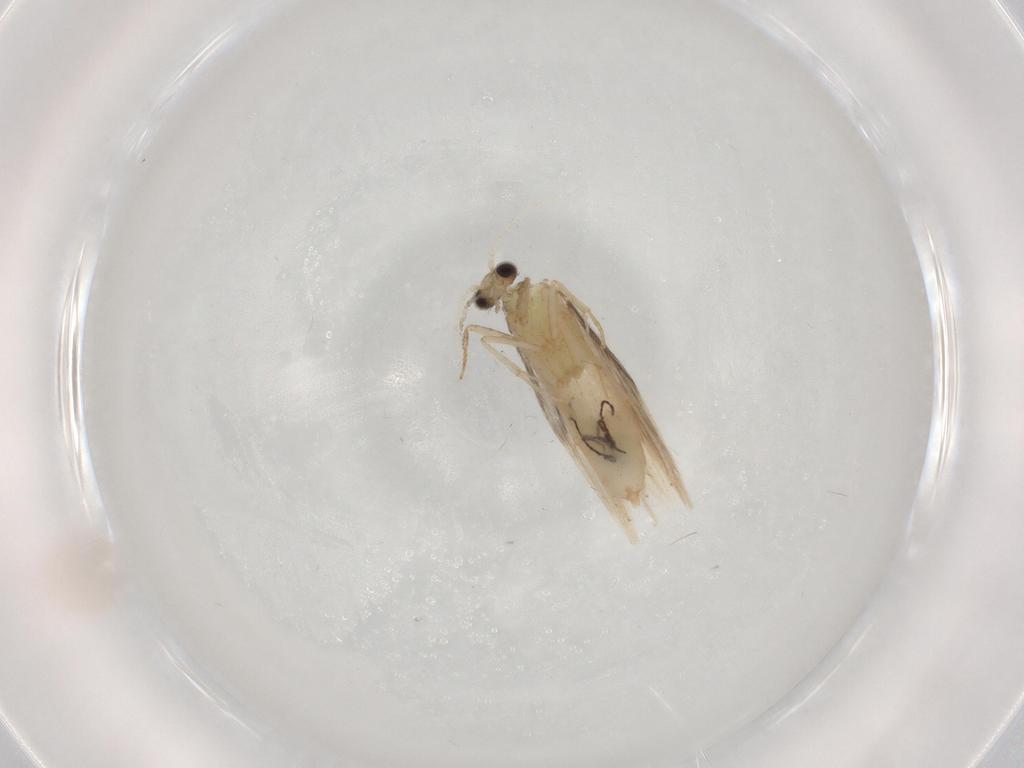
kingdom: Animalia
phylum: Arthropoda
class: Insecta
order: Trichoptera
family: Hydroptilidae
